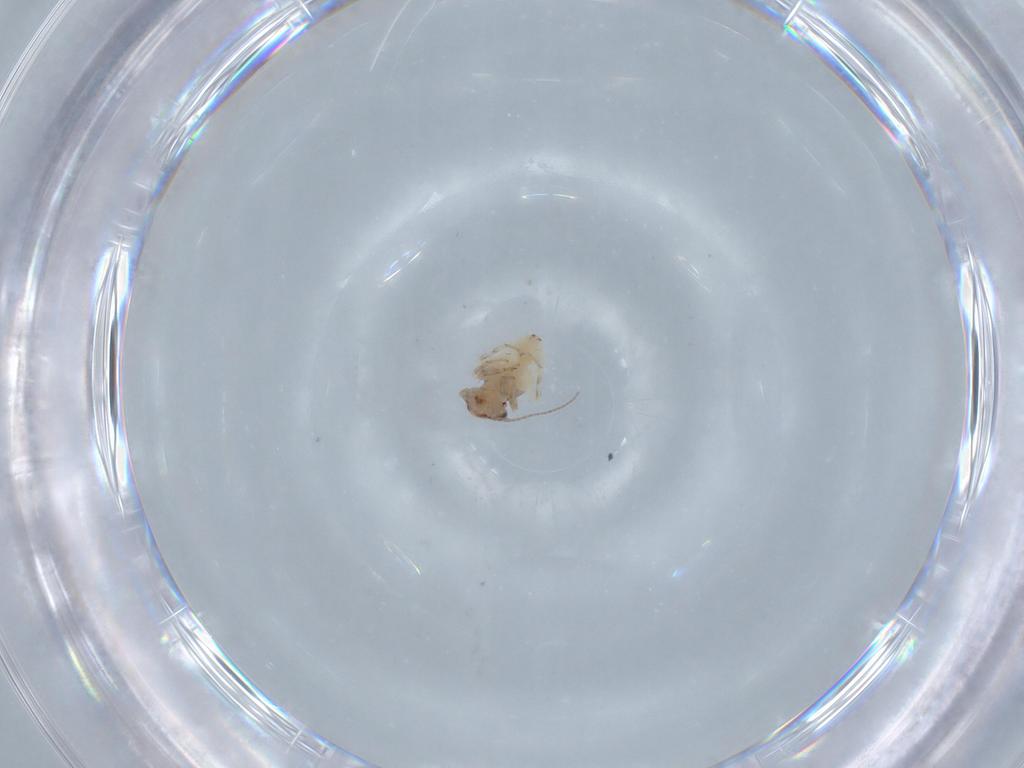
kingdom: Animalia
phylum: Arthropoda
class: Insecta
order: Psocodea
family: Lepidopsocidae
